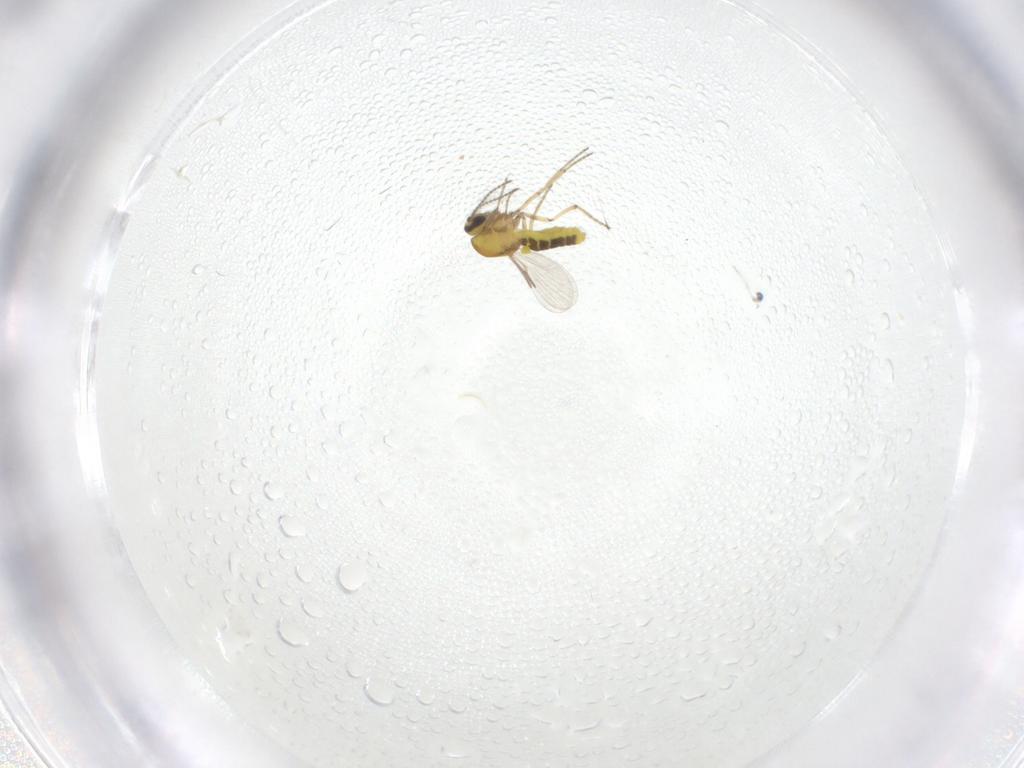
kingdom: Animalia
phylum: Arthropoda
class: Insecta
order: Diptera
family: Ceratopogonidae
